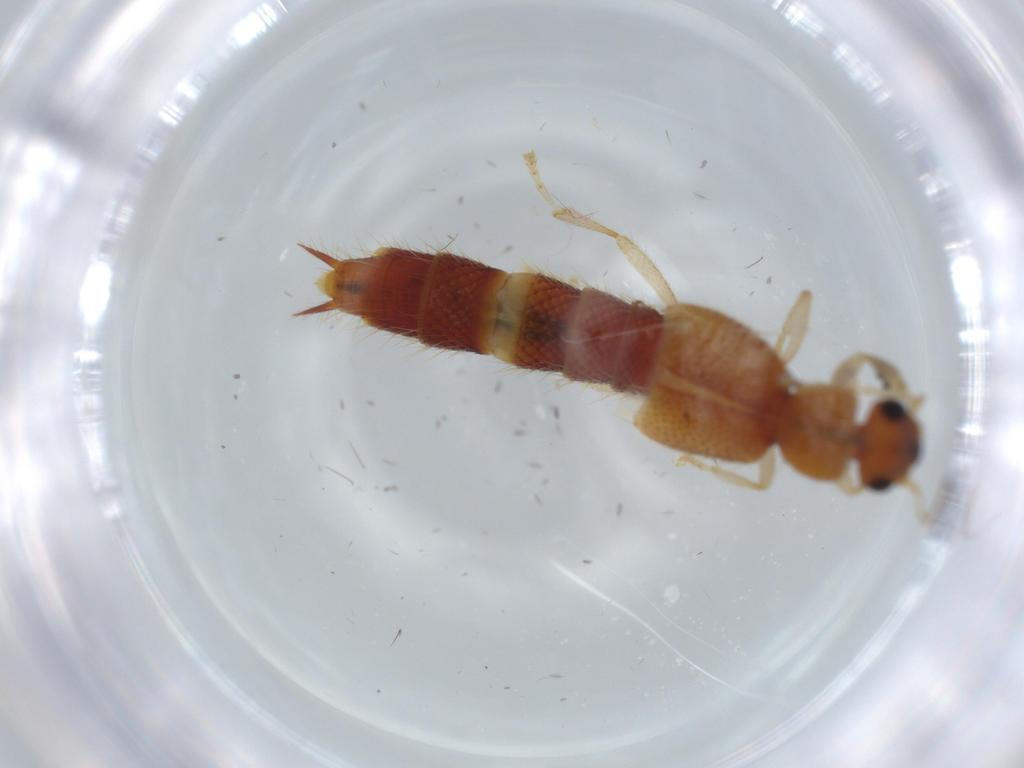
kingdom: Animalia
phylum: Arthropoda
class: Insecta
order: Coleoptera
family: Staphylinidae
